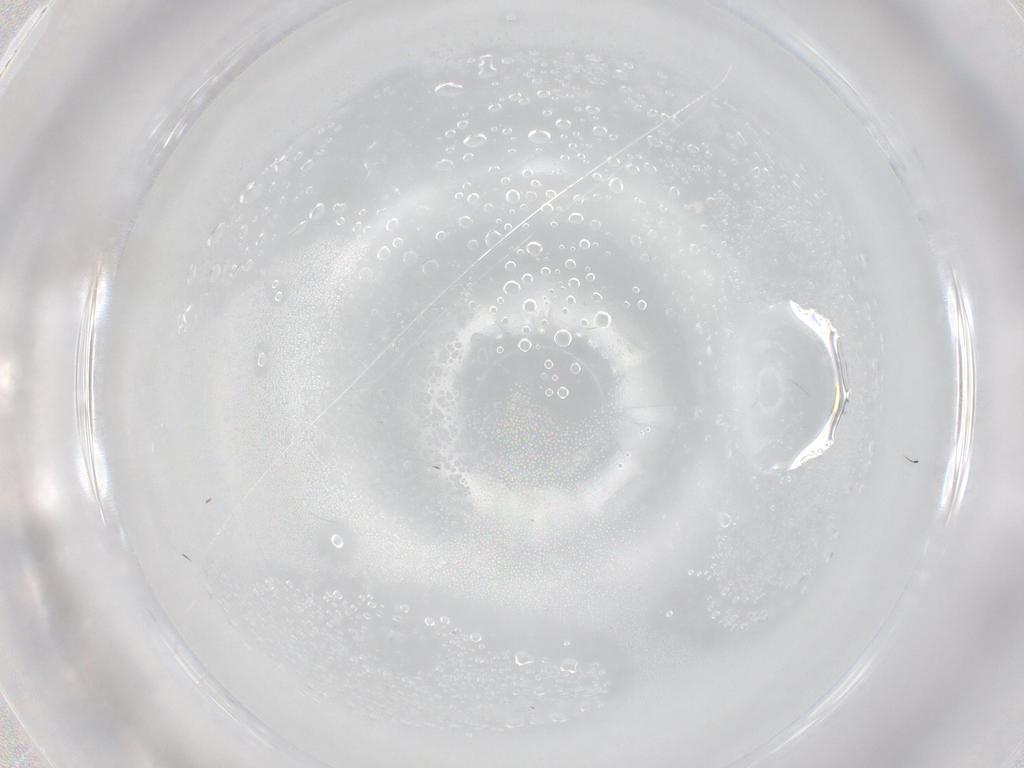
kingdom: Animalia
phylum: Arthropoda
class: Insecta
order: Hymenoptera
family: Mymaridae
